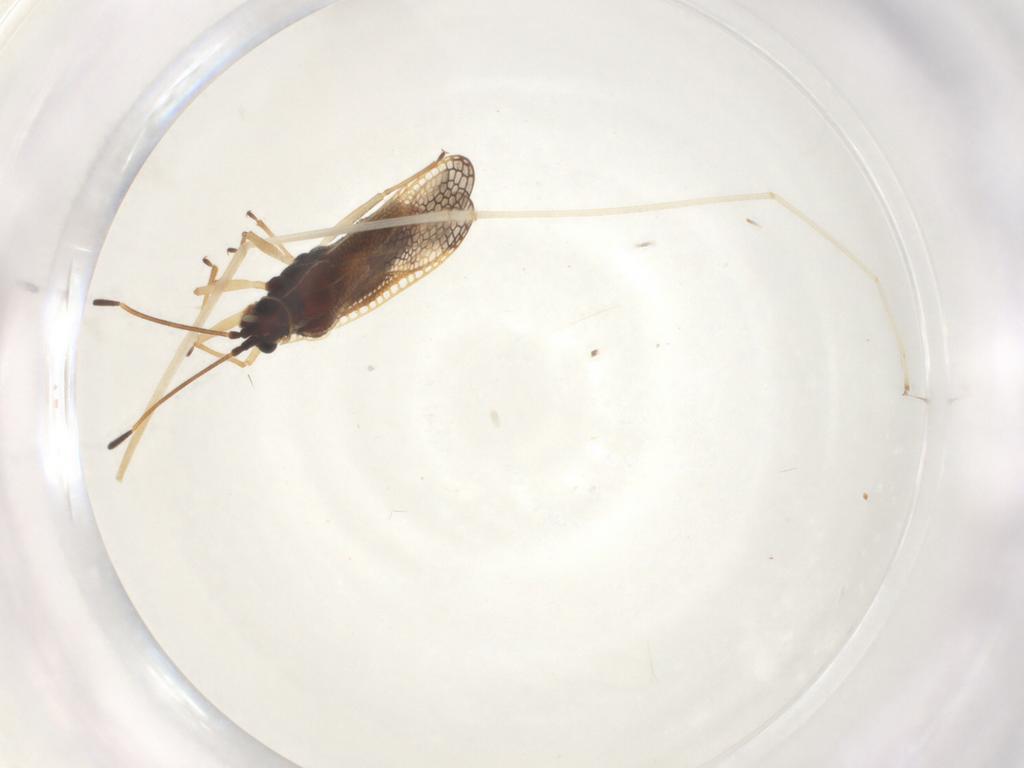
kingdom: Animalia
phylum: Arthropoda
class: Insecta
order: Hemiptera
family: Tingidae
